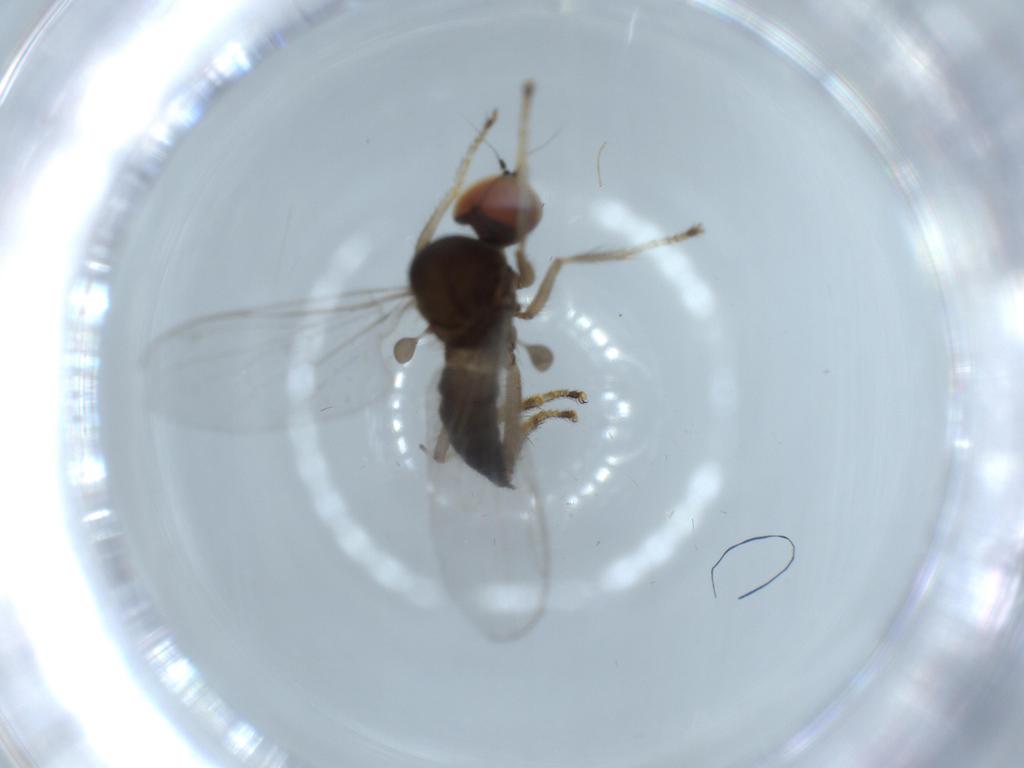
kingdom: Animalia
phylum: Arthropoda
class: Insecta
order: Diptera
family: Hybotidae
